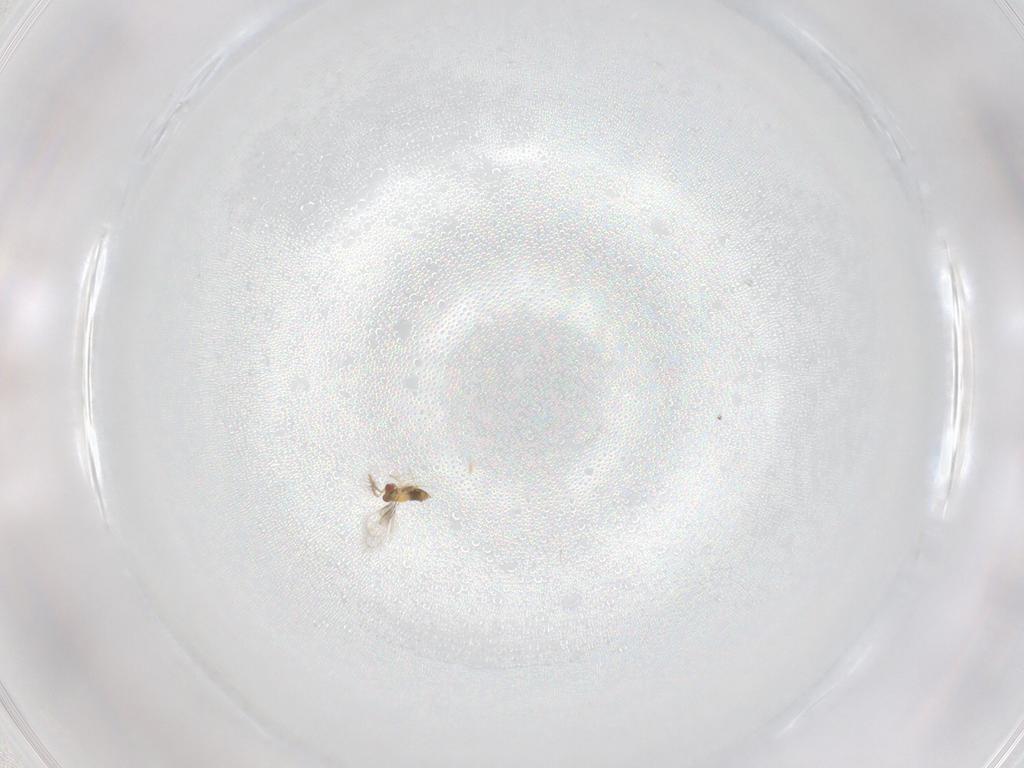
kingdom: Animalia
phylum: Arthropoda
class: Insecta
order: Hymenoptera
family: Trichogrammatidae
